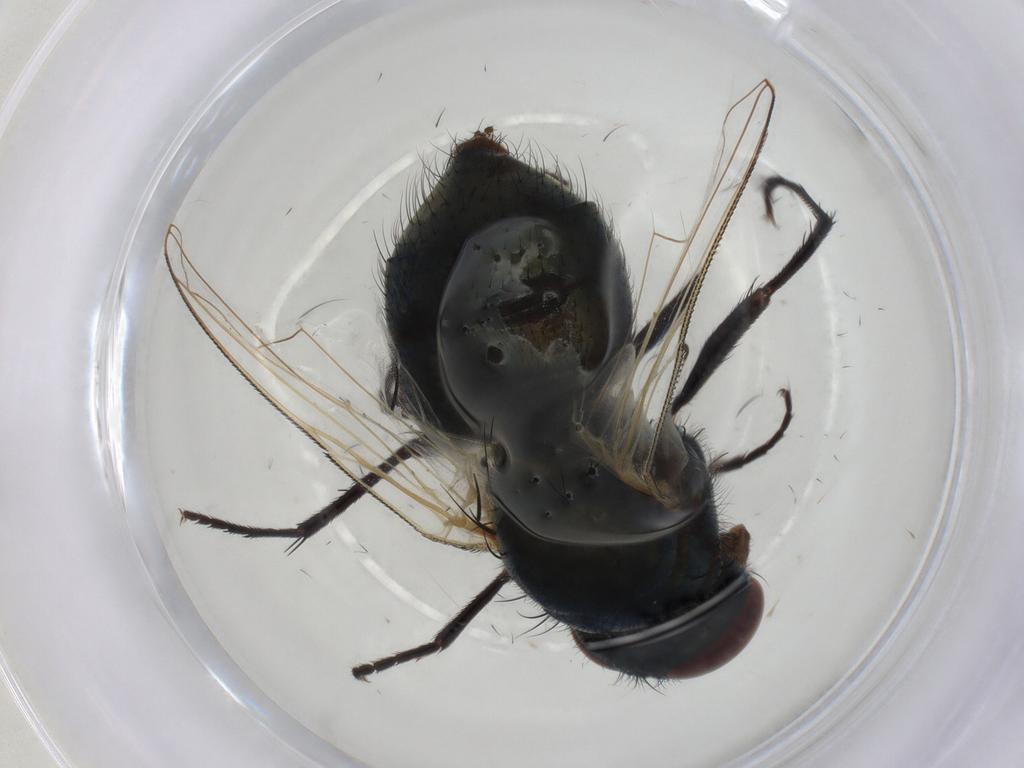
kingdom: Animalia
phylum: Arthropoda
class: Insecta
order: Diptera
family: Muscidae
